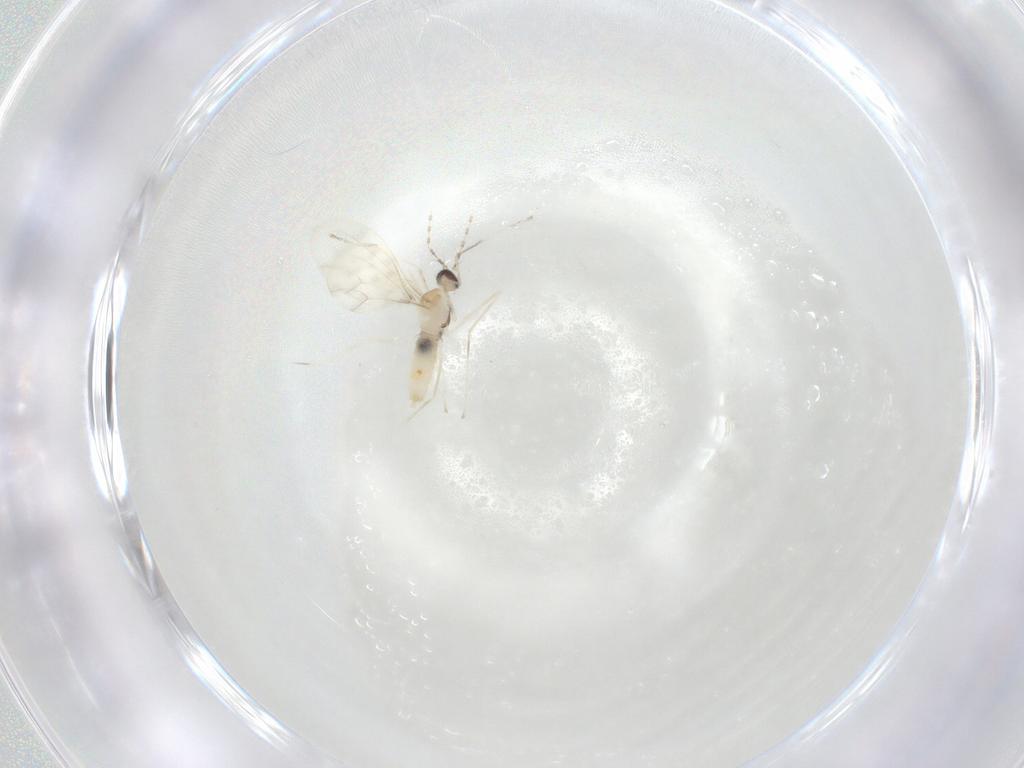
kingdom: Animalia
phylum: Arthropoda
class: Insecta
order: Diptera
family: Cecidomyiidae
